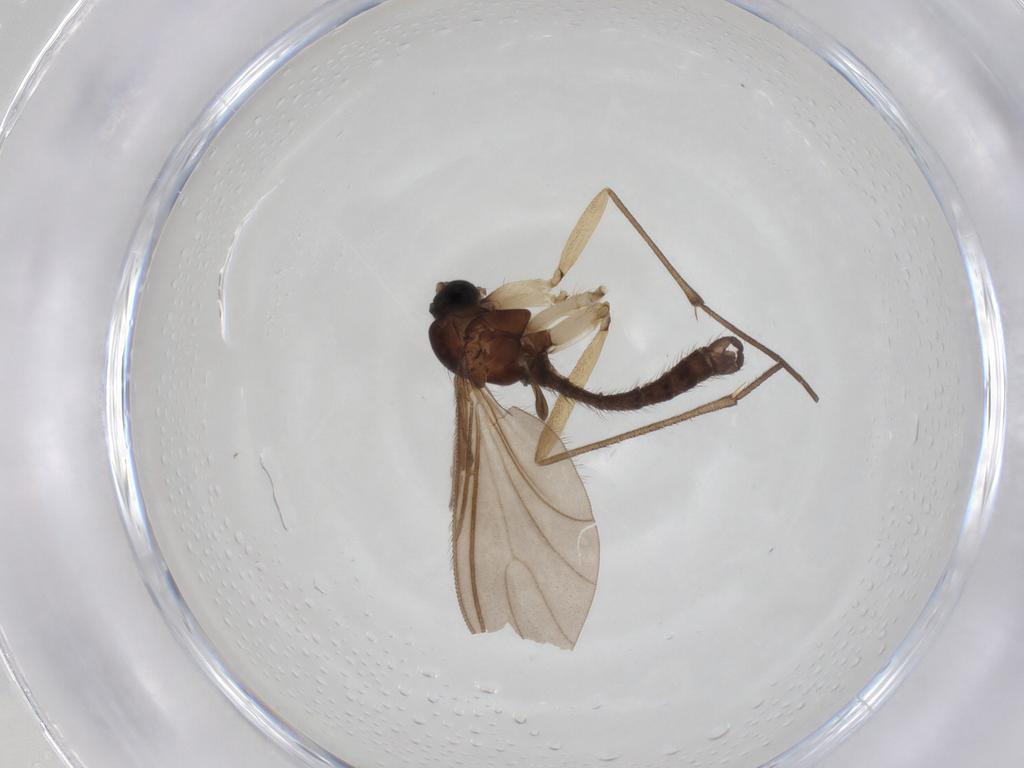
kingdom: Animalia
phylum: Arthropoda
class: Insecta
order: Diptera
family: Sciaridae
